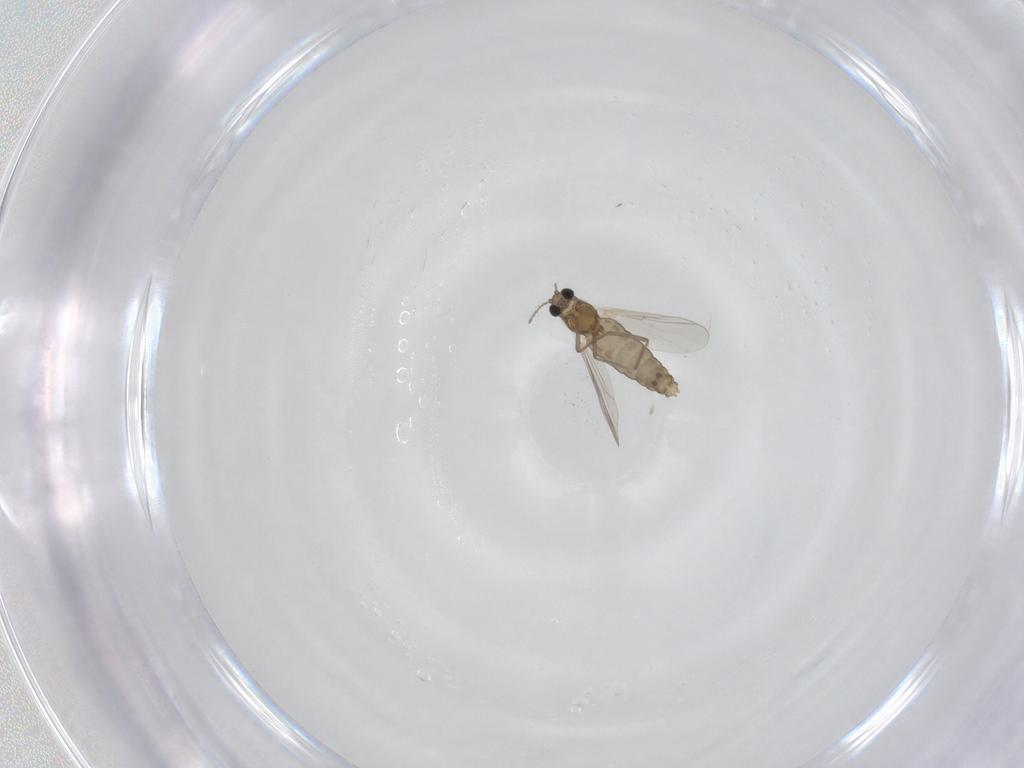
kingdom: Animalia
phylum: Arthropoda
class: Insecta
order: Diptera
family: Chironomidae
